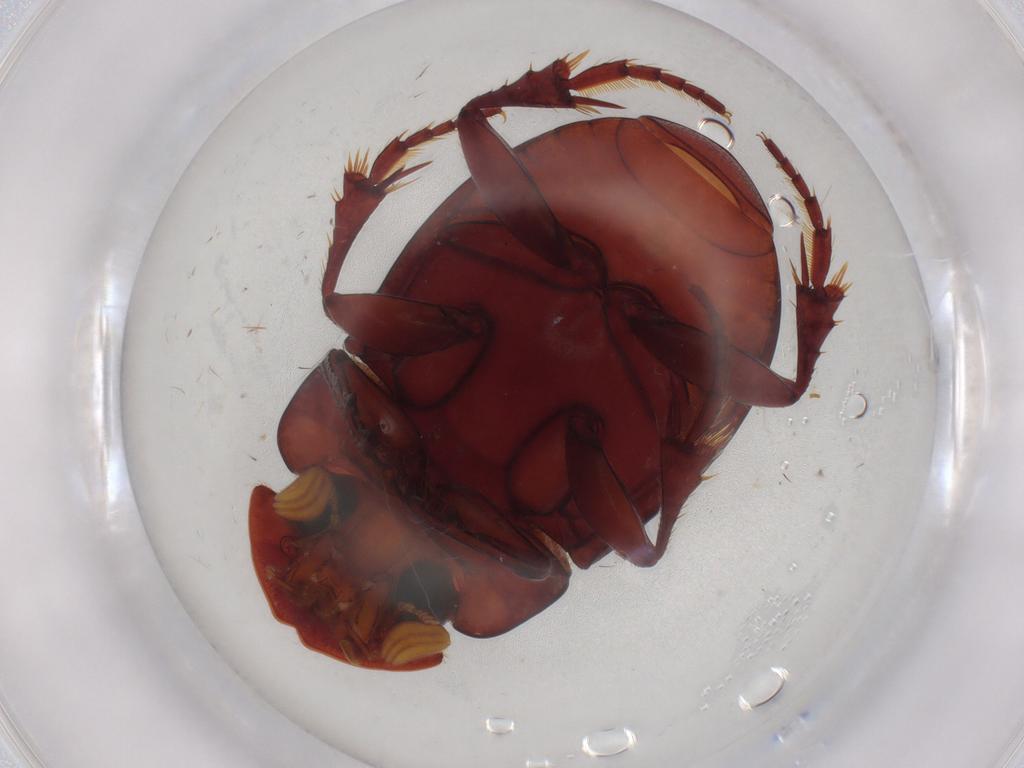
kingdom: Animalia
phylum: Arthropoda
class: Insecta
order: Coleoptera
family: Scarabaeidae
